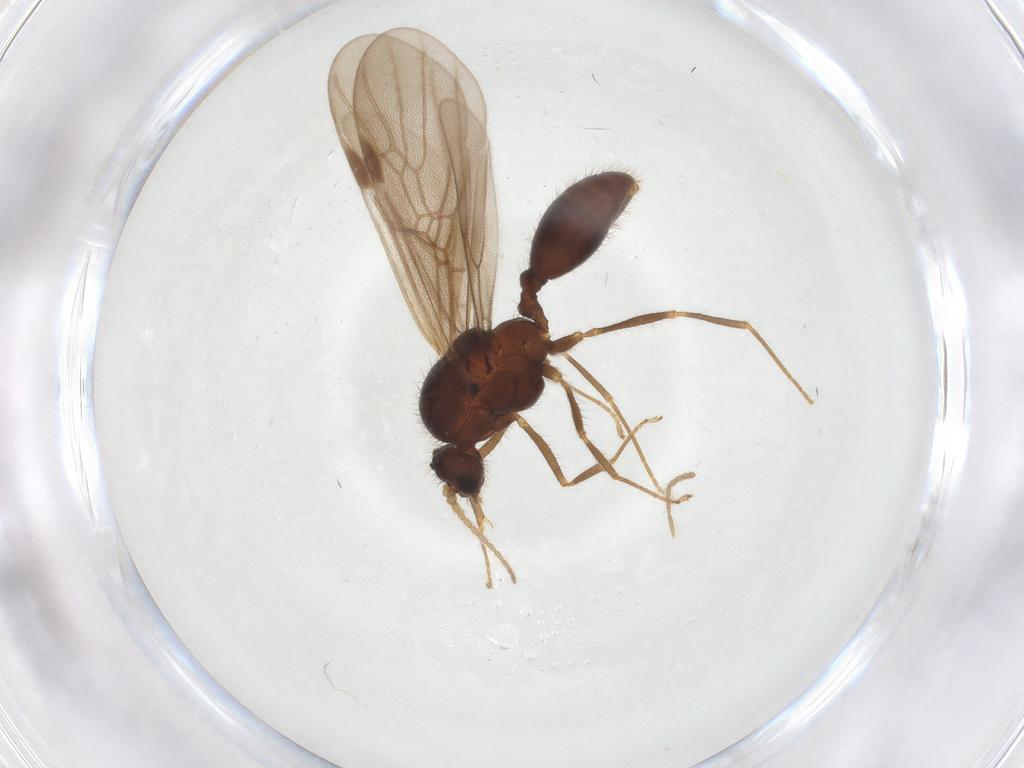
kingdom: Animalia
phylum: Arthropoda
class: Insecta
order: Hymenoptera
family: Formicidae
